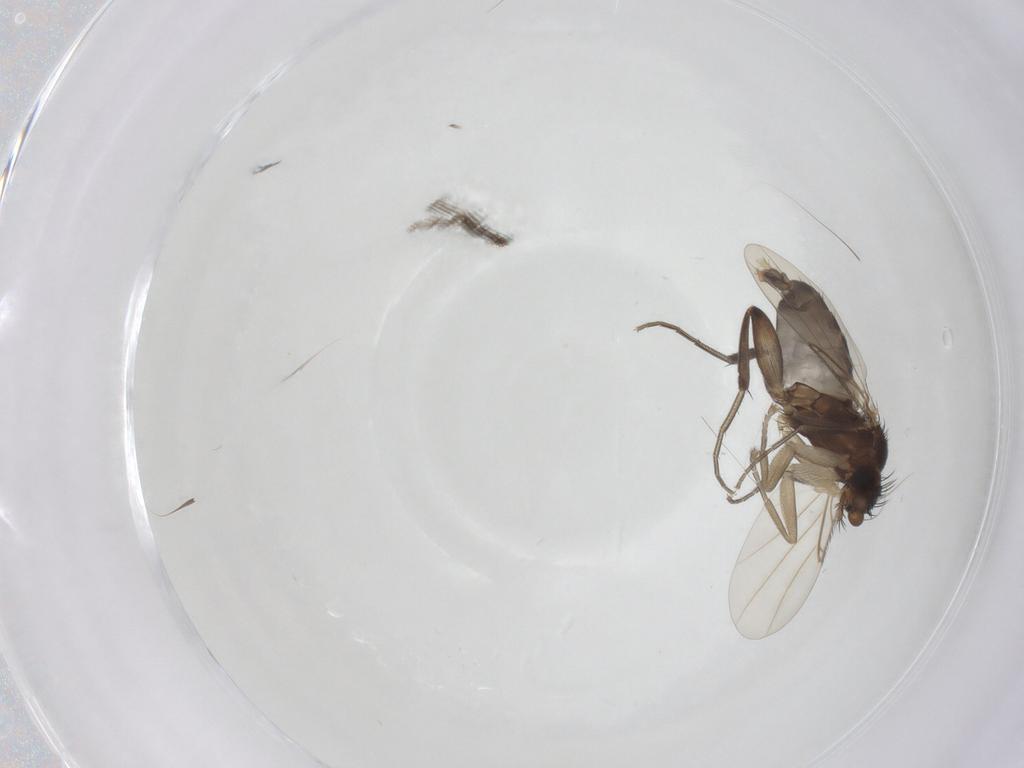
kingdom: Animalia
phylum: Arthropoda
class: Insecta
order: Diptera
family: Phoridae
